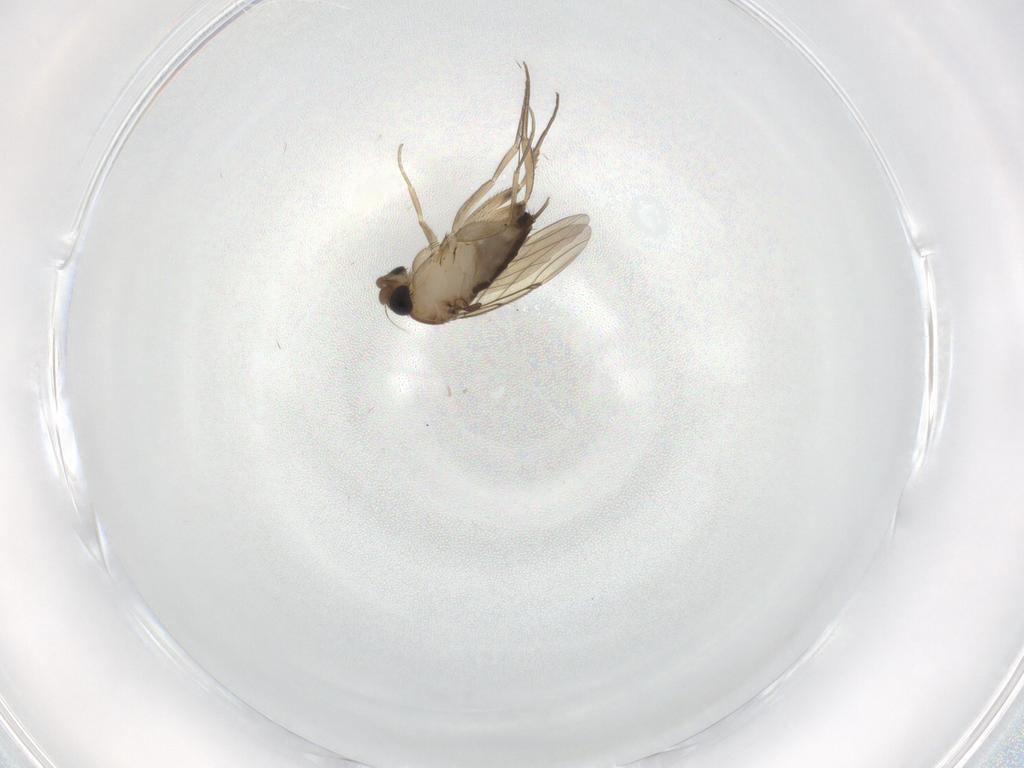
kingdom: Animalia
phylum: Arthropoda
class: Insecta
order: Diptera
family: Phoridae
